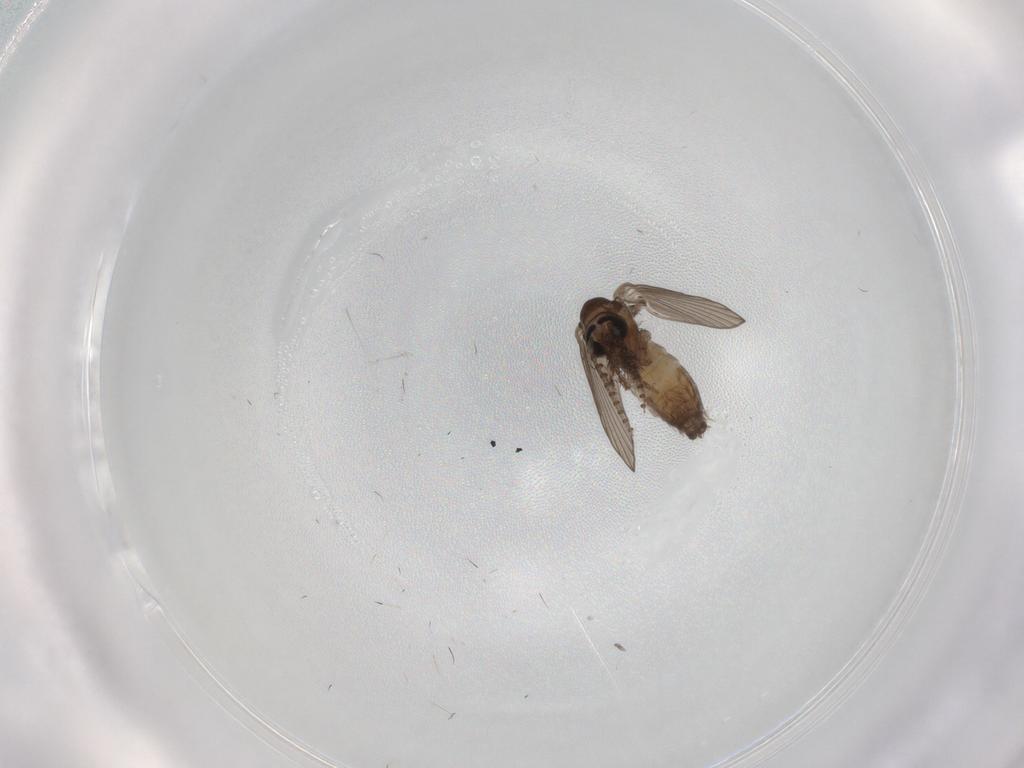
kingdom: Animalia
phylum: Arthropoda
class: Insecta
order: Diptera
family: Psychodidae
